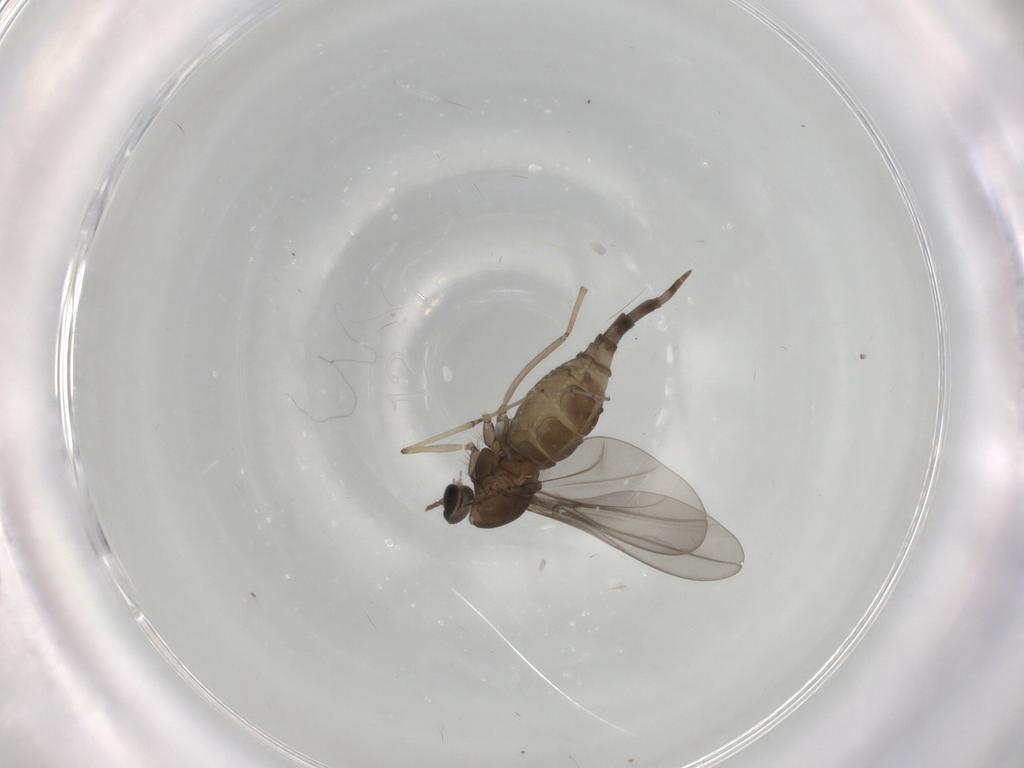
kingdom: Animalia
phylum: Arthropoda
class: Insecta
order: Diptera
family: Cecidomyiidae
